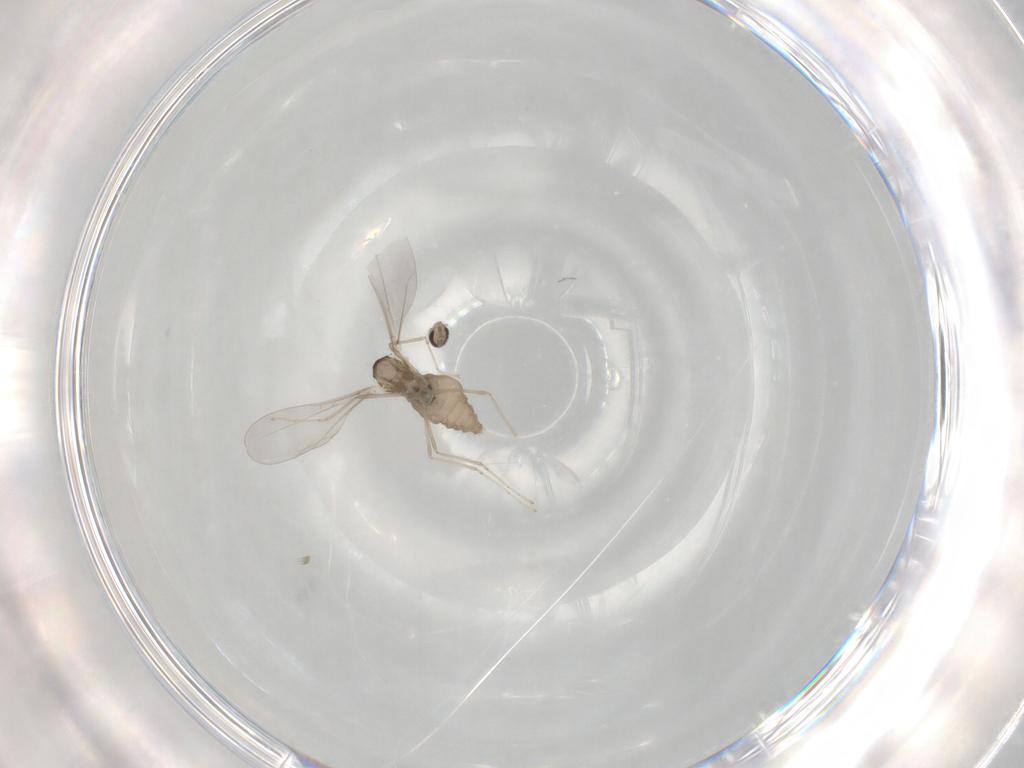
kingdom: Animalia
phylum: Arthropoda
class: Insecta
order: Diptera
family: Cecidomyiidae
